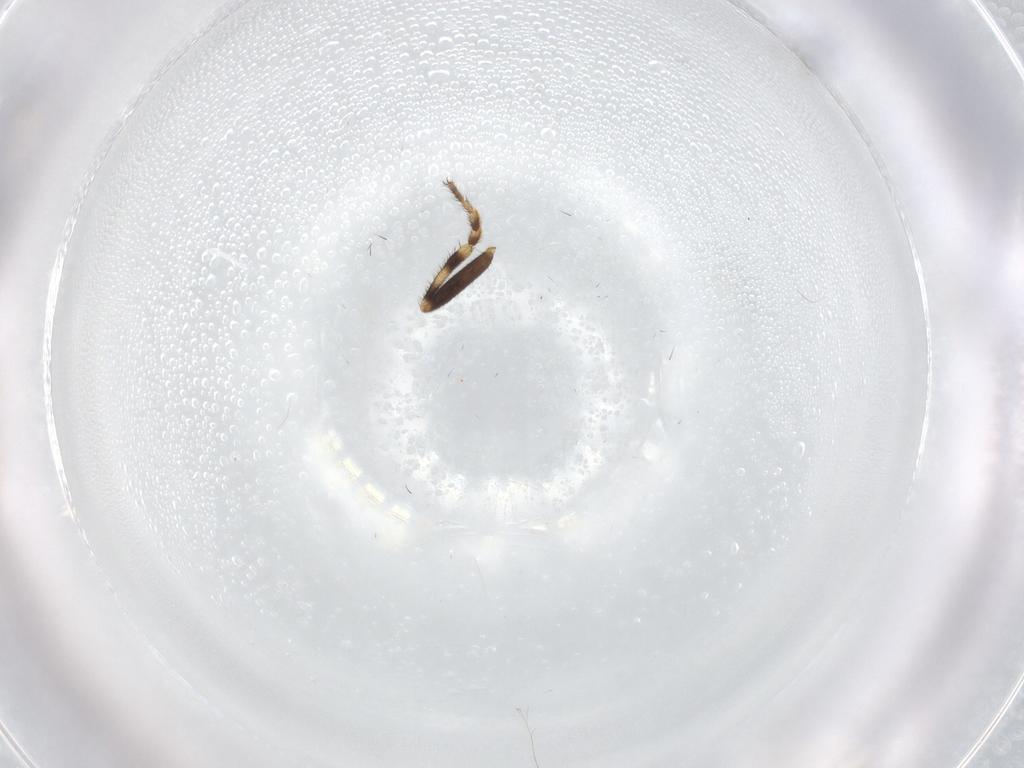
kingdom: Animalia
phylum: Arthropoda
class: Insecta
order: Diptera
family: Sphaeroceridae
